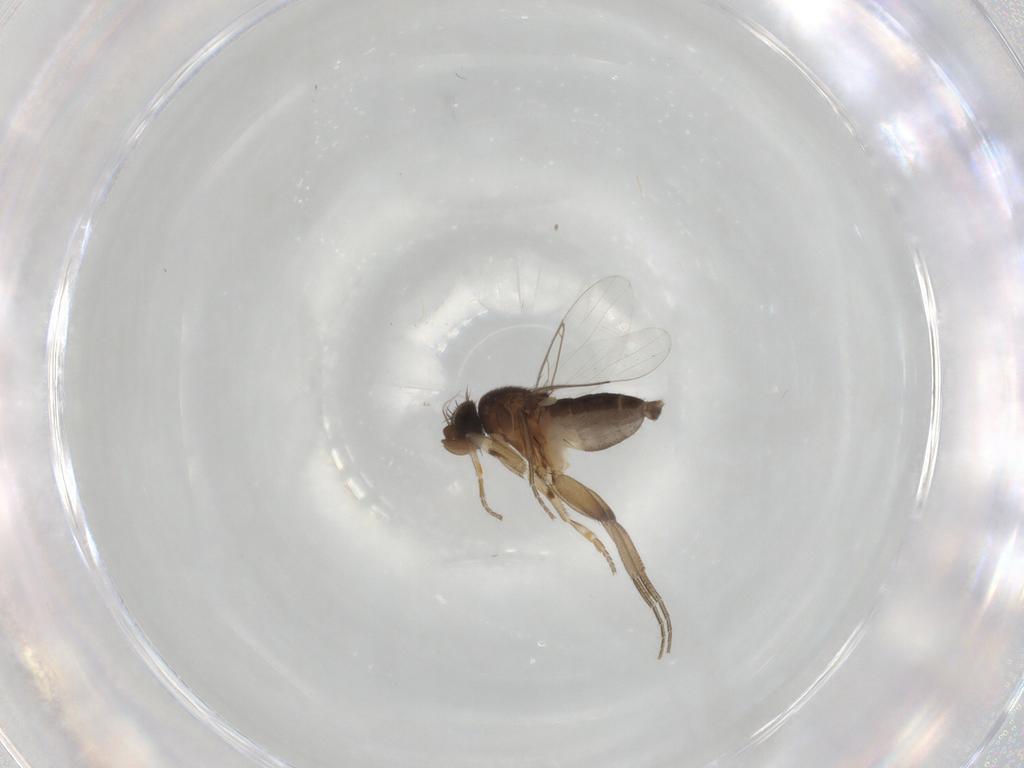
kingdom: Animalia
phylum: Arthropoda
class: Insecta
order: Diptera
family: Phoridae
